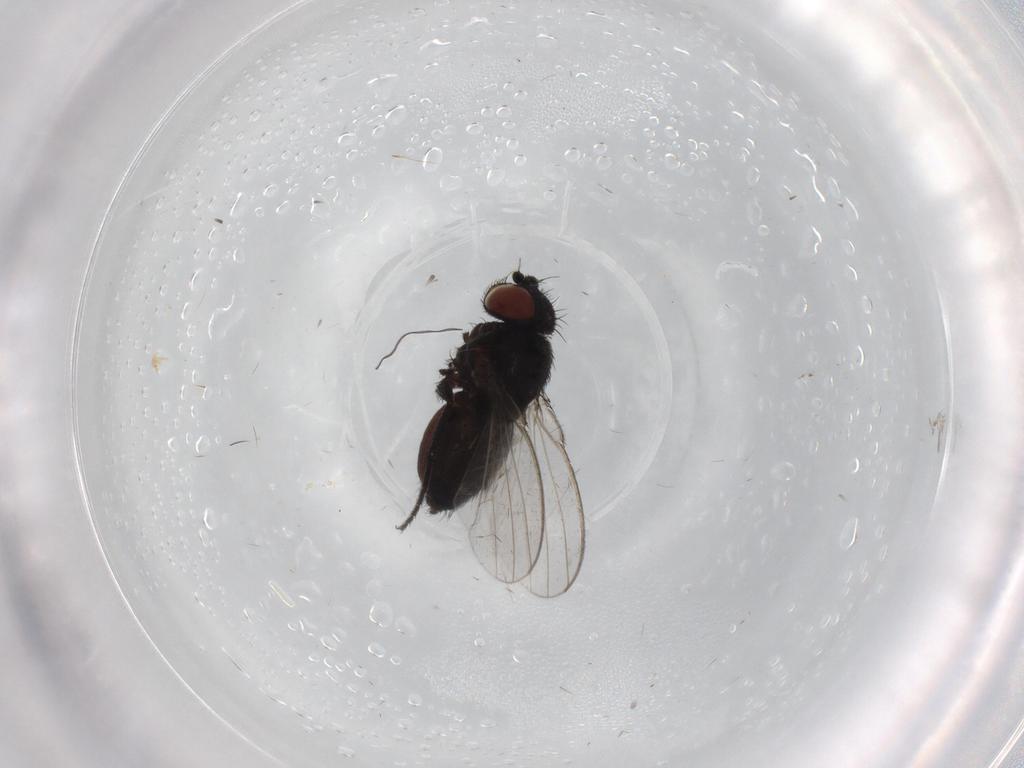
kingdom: Animalia
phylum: Arthropoda
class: Insecta
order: Diptera
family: Milichiidae
